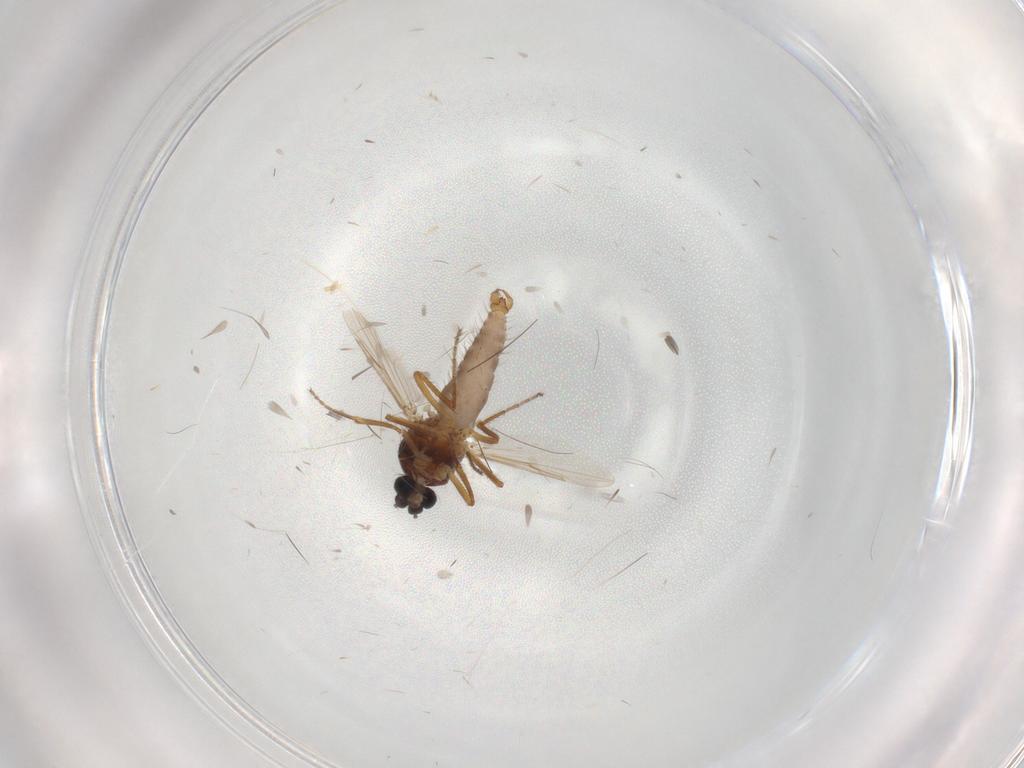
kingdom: Animalia
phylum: Arthropoda
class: Insecta
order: Diptera
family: Ceratopogonidae
